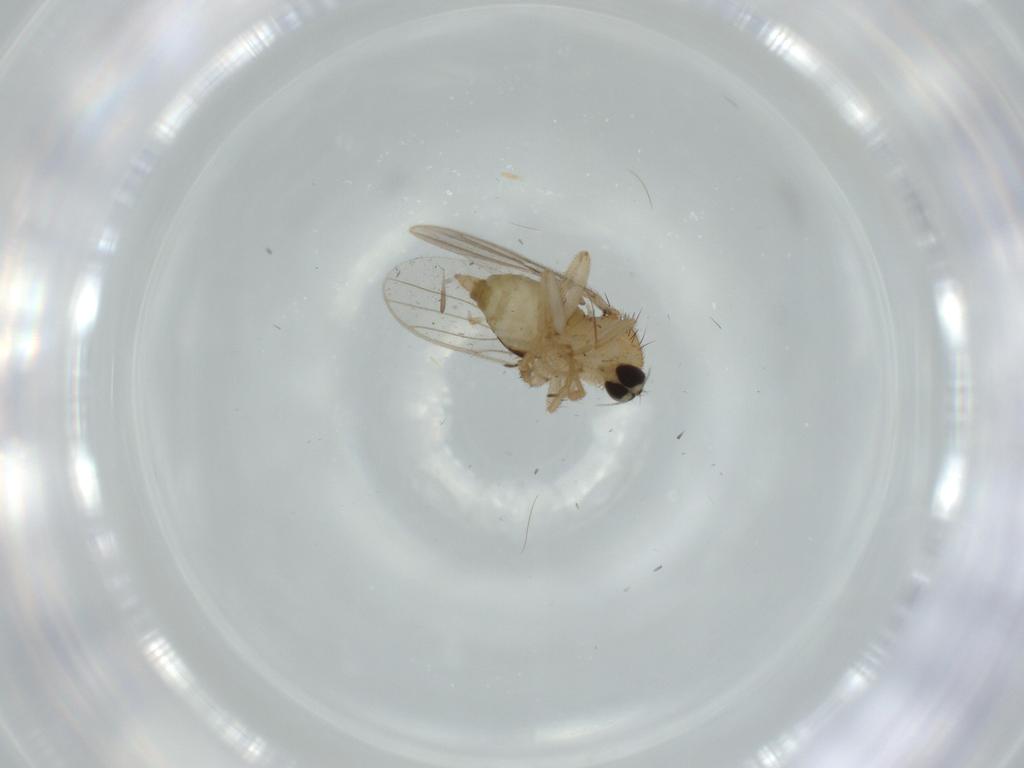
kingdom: Animalia
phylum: Arthropoda
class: Insecta
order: Diptera
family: Hybotidae
